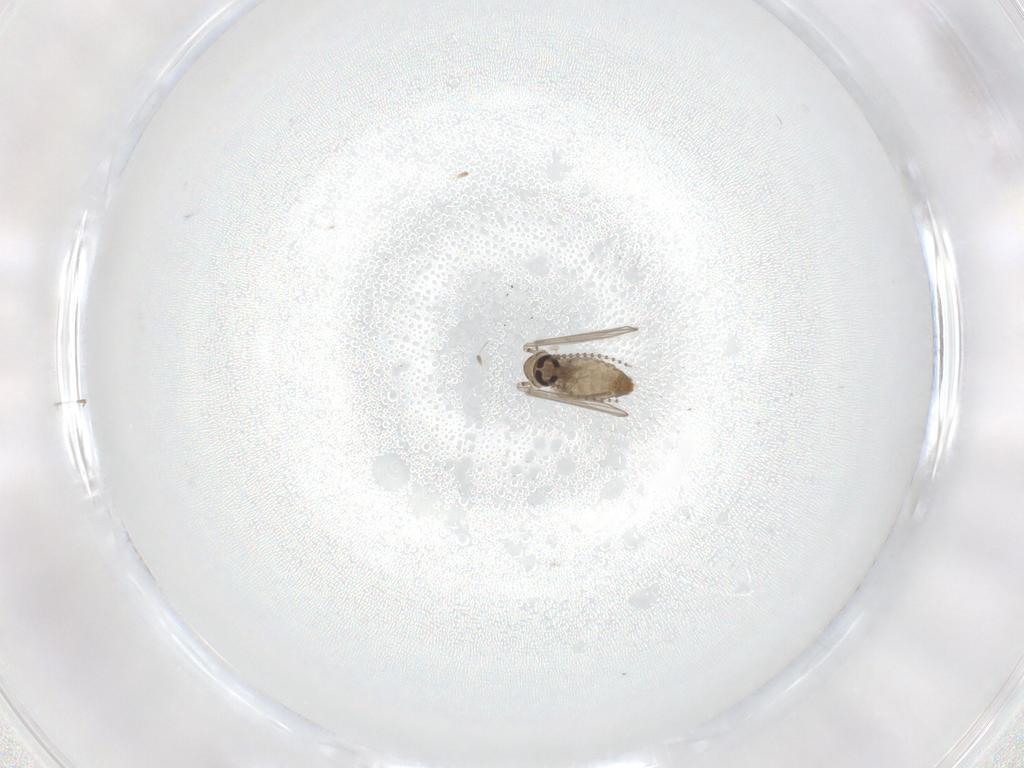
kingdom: Animalia
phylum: Arthropoda
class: Insecta
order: Diptera
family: Psychodidae
